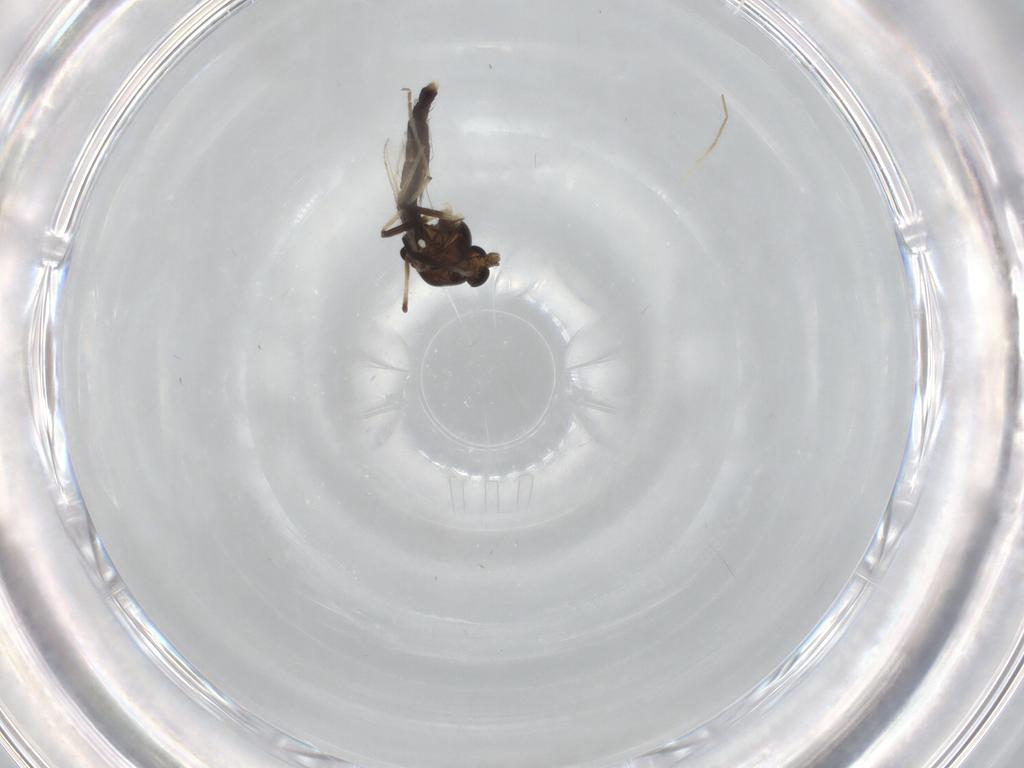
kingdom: Animalia
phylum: Arthropoda
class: Insecta
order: Diptera
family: Chironomidae
